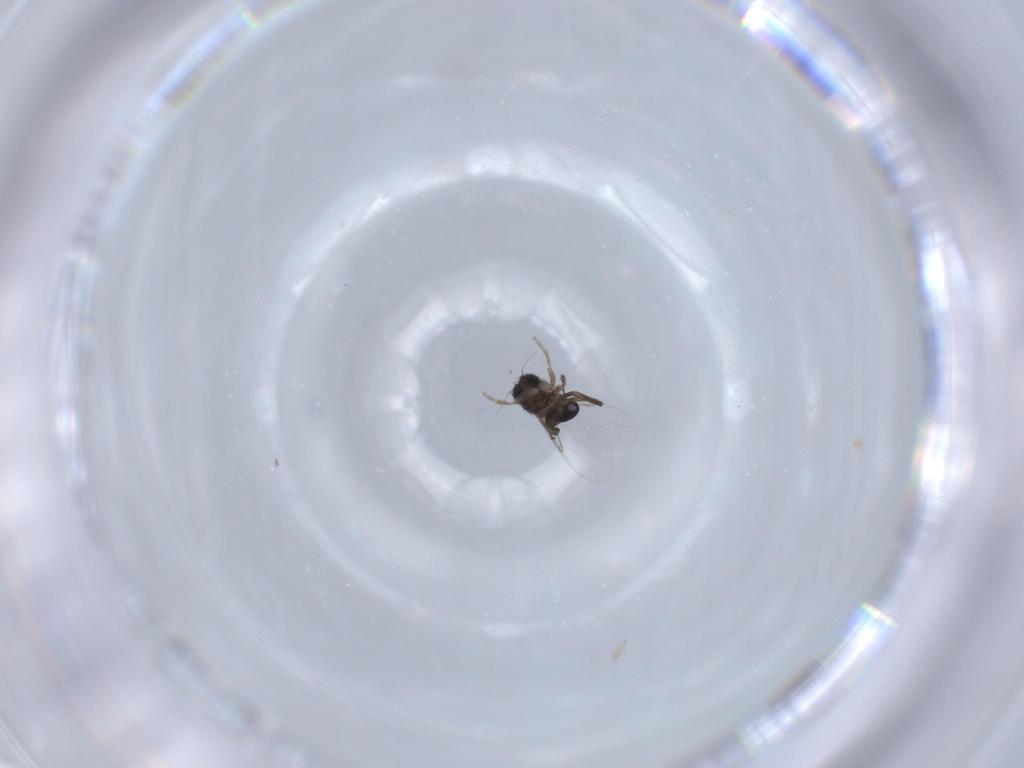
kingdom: Animalia
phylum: Arthropoda
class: Insecta
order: Diptera
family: Phoridae
